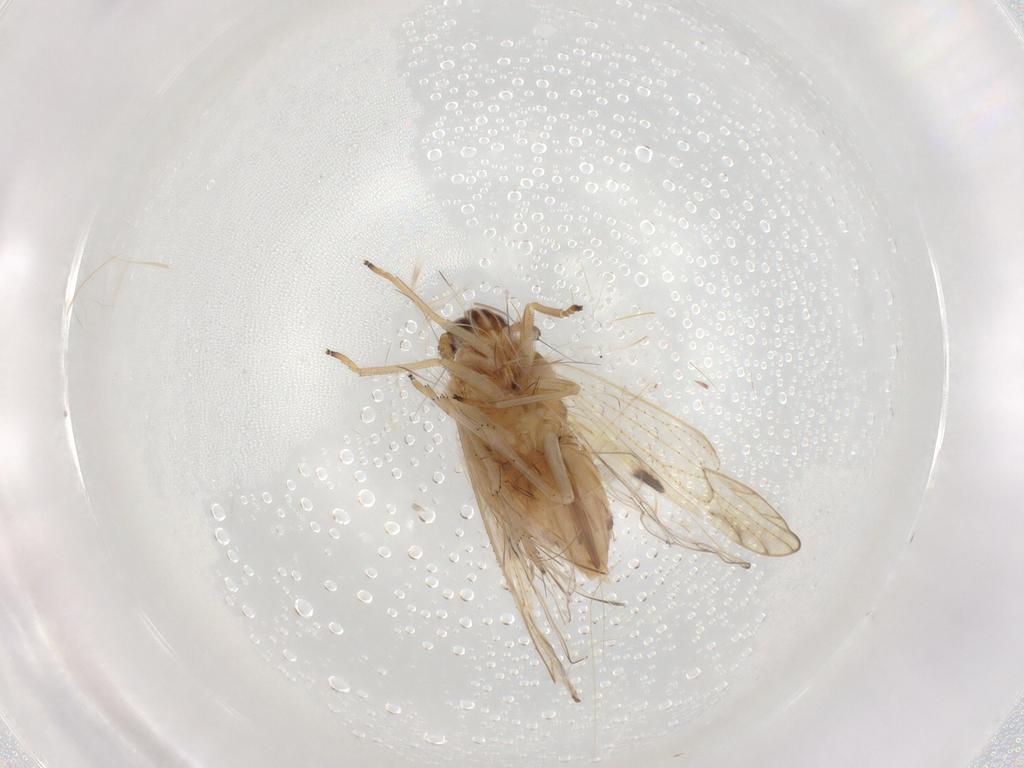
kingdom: Animalia
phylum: Arthropoda
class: Insecta
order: Hemiptera
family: Delphacidae
